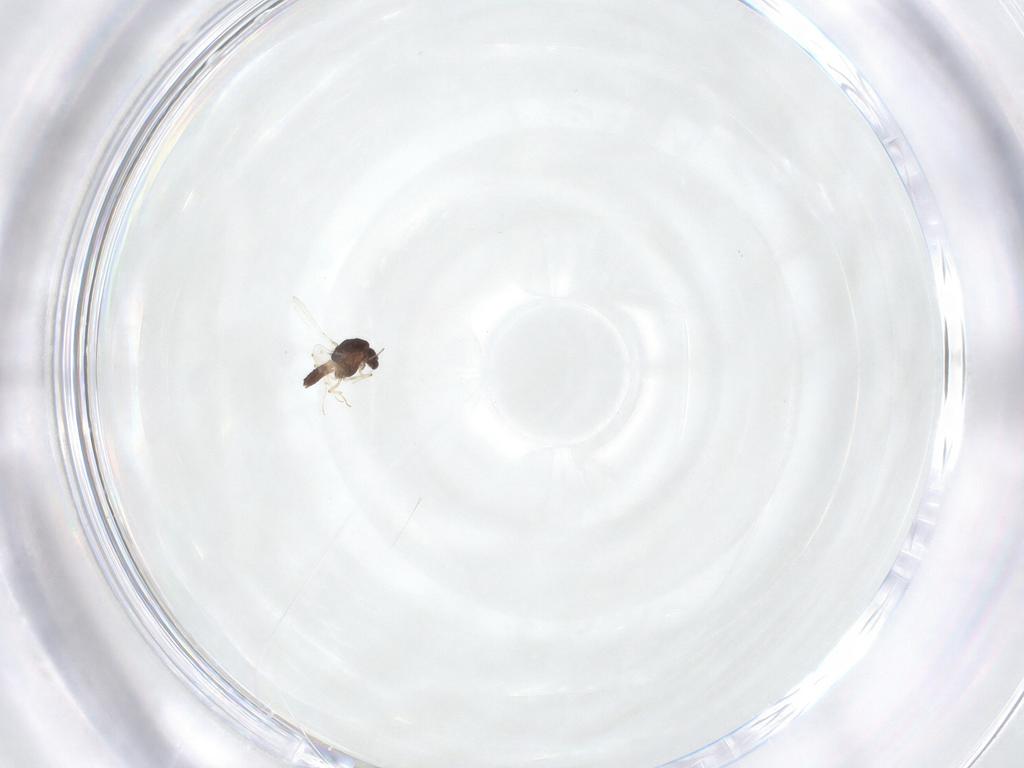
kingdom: Animalia
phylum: Arthropoda
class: Insecta
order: Diptera
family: Chironomidae
